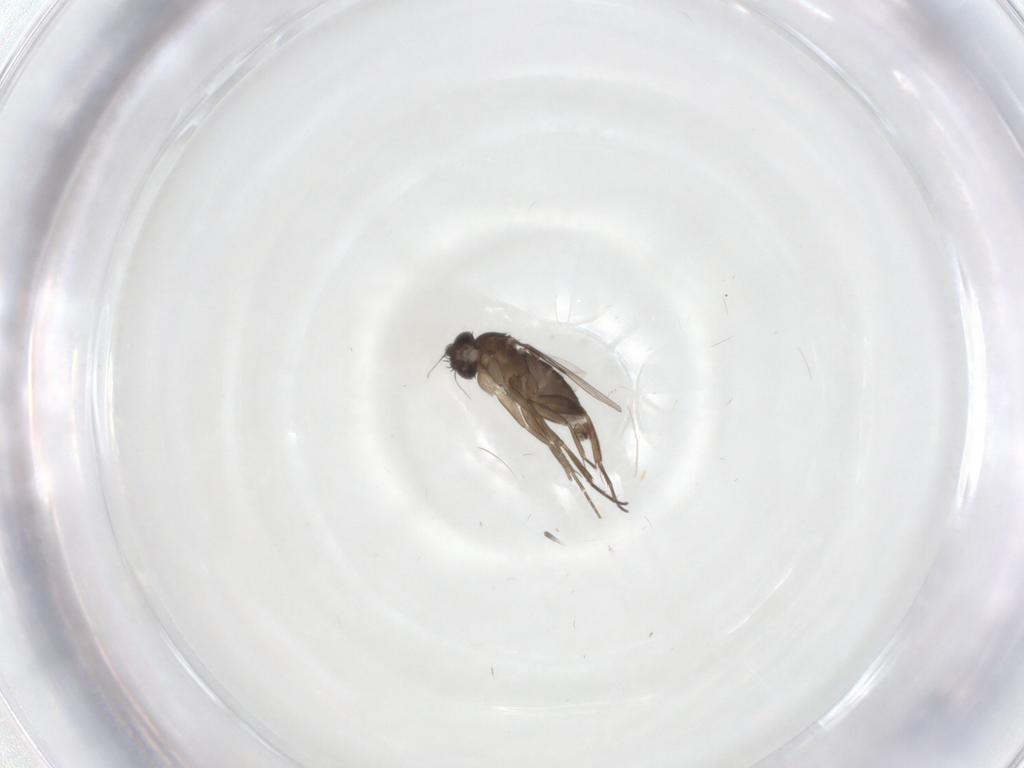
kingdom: Animalia
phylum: Arthropoda
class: Insecta
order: Diptera
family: Phoridae
